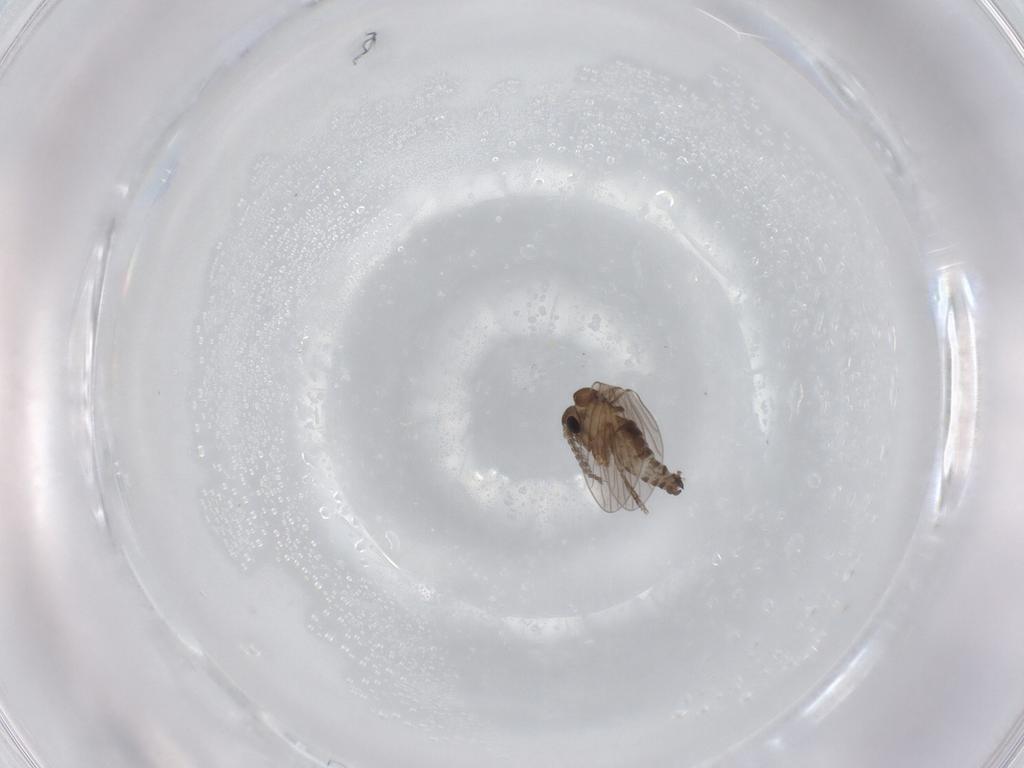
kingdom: Animalia
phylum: Arthropoda
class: Insecta
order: Diptera
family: Psychodidae
